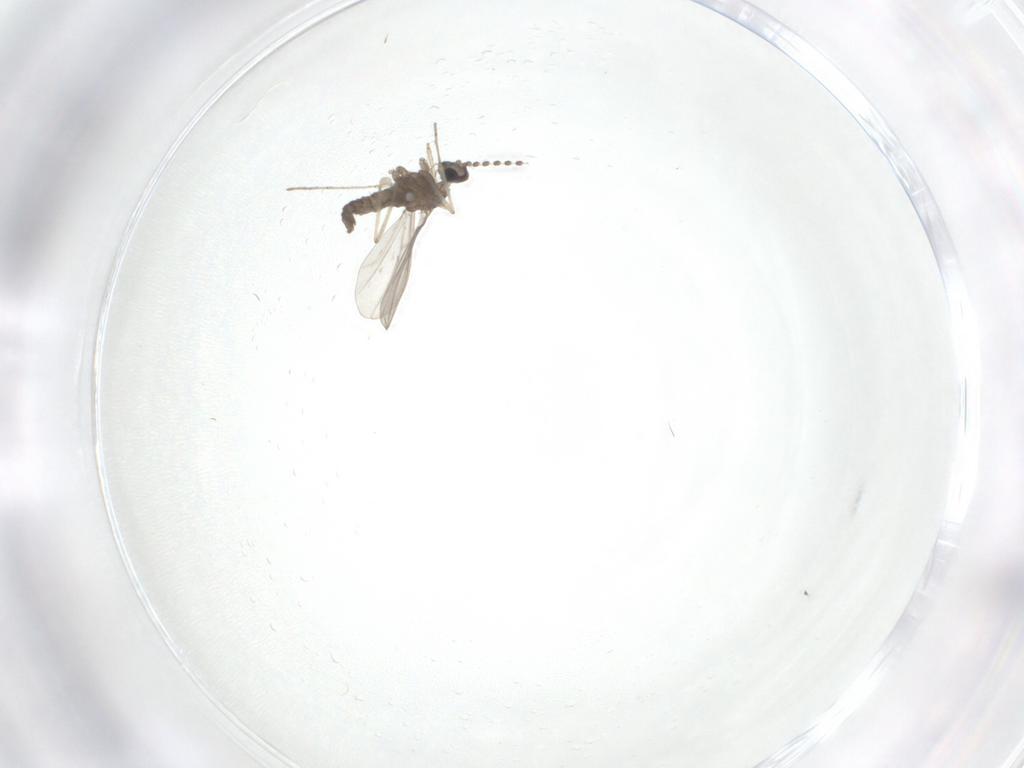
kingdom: Animalia
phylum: Arthropoda
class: Insecta
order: Diptera
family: Cecidomyiidae
